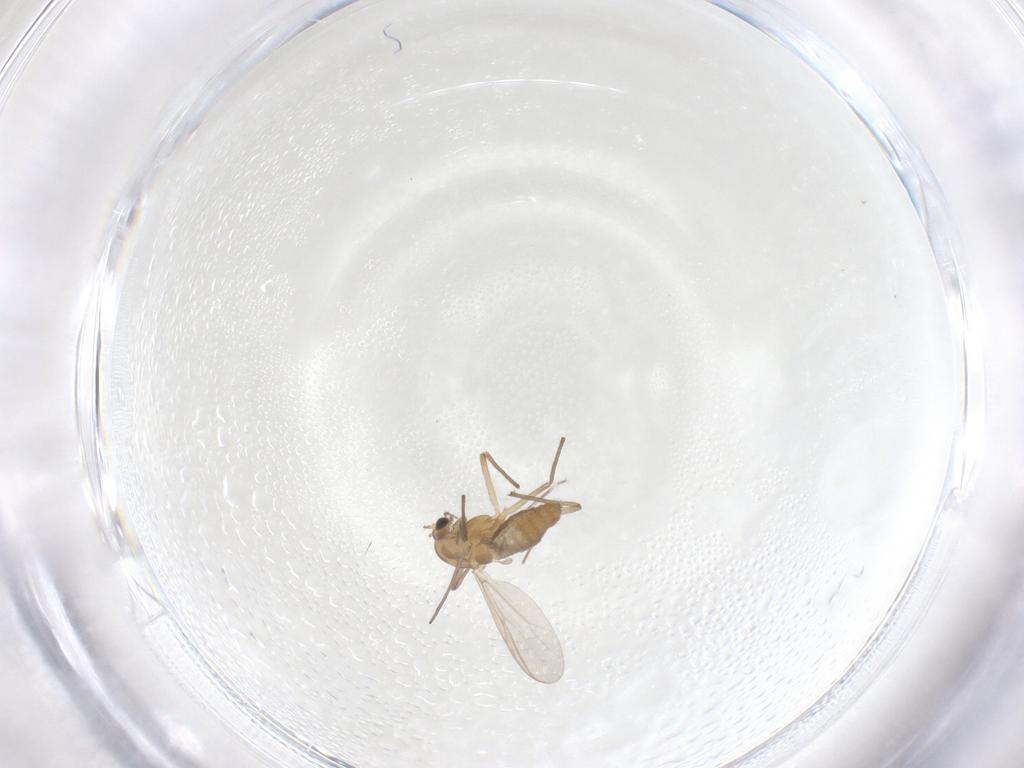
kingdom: Animalia
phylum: Arthropoda
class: Insecta
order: Diptera
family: Chironomidae
